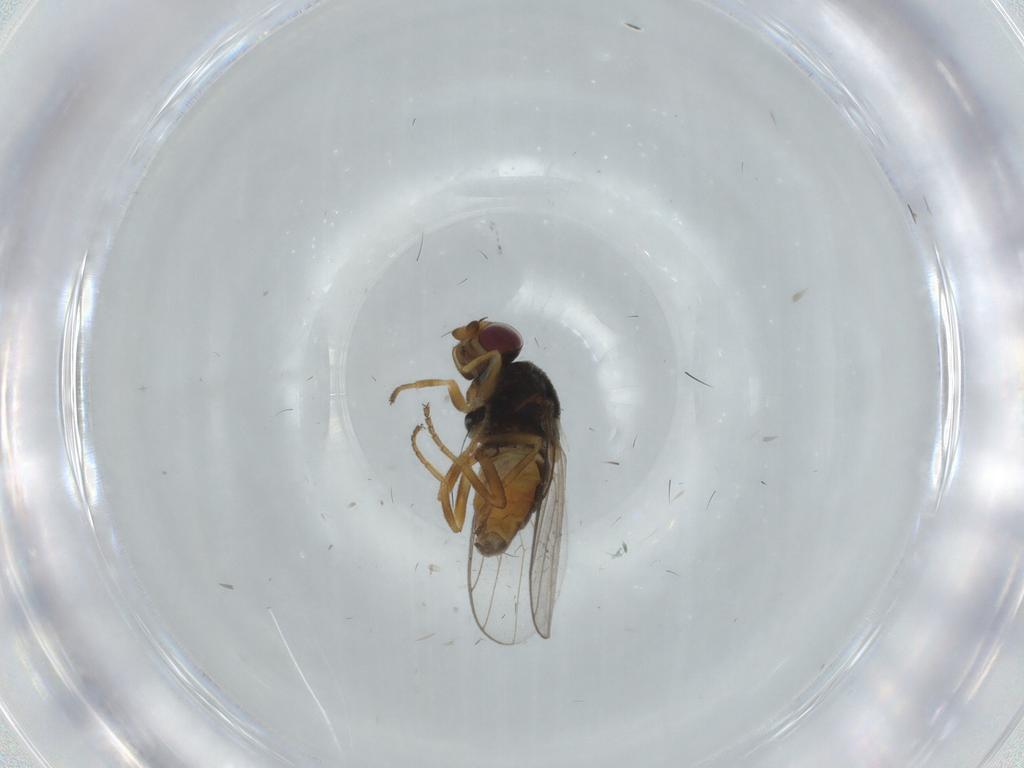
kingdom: Animalia
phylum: Arthropoda
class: Insecta
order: Diptera
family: Chloropidae
